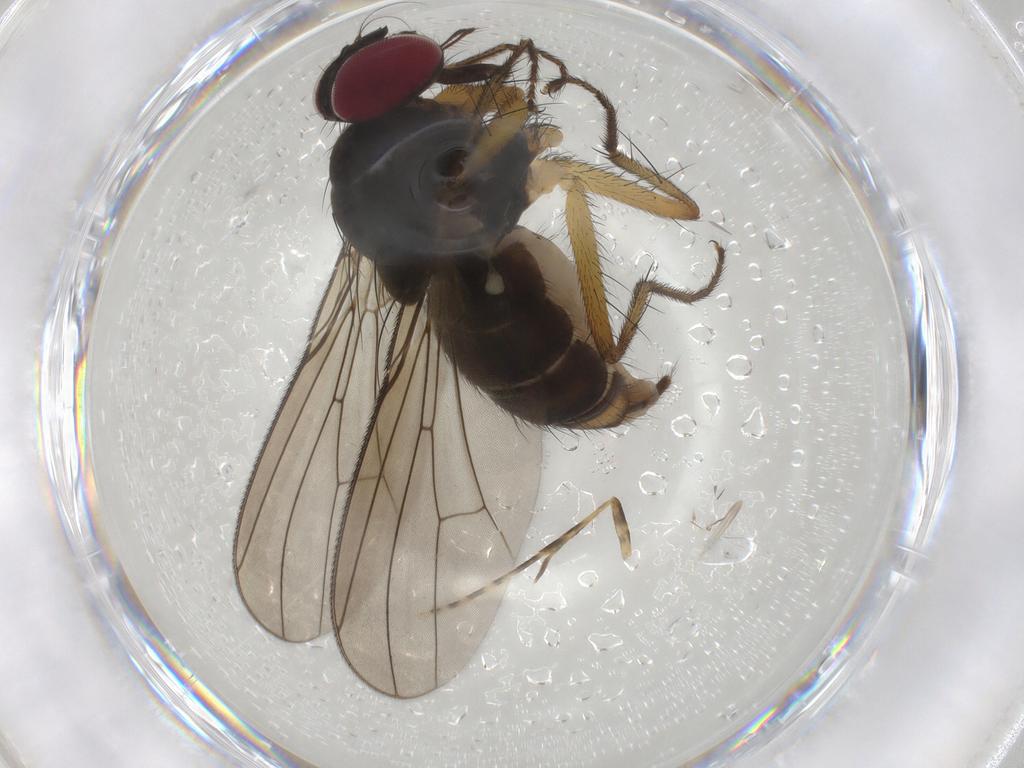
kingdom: Animalia
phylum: Arthropoda
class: Insecta
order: Diptera
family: Anthomyiidae
